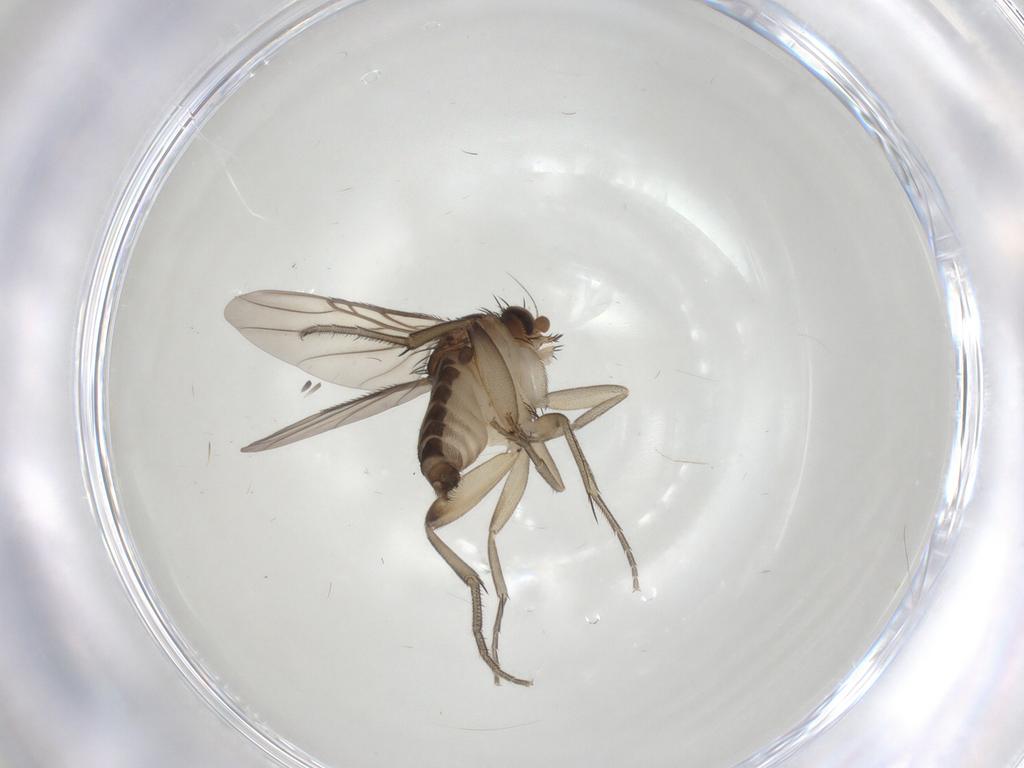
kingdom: Animalia
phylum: Arthropoda
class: Insecta
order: Diptera
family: Phoridae
